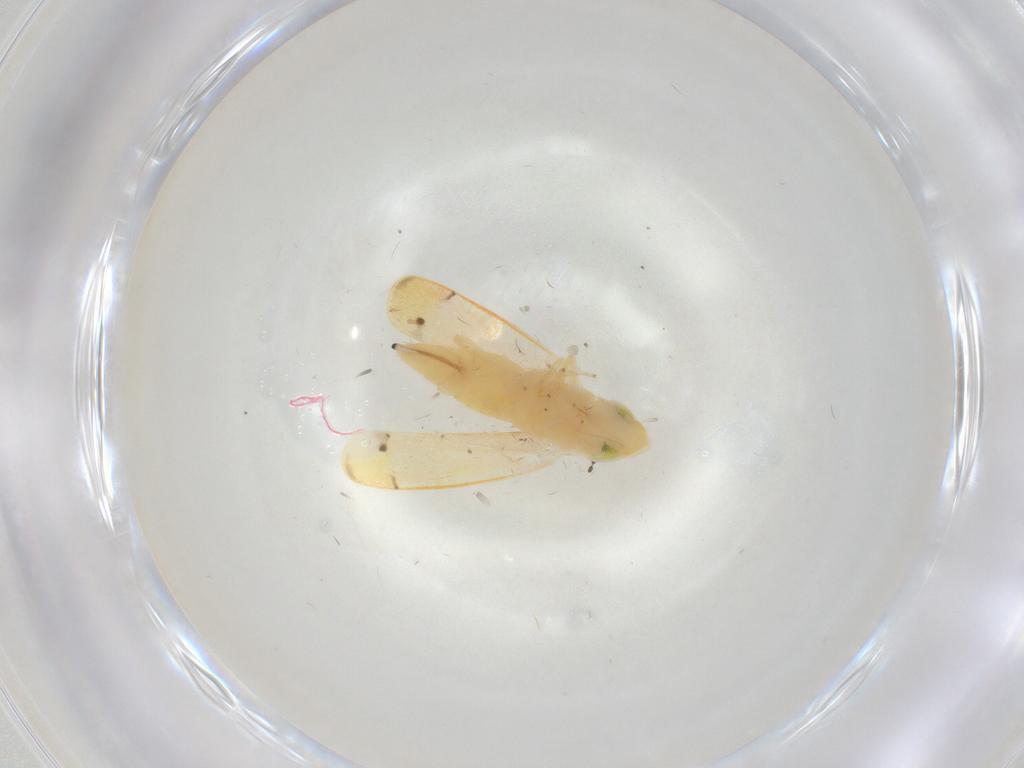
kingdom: Animalia
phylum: Arthropoda
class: Insecta
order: Hemiptera
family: Cicadellidae
